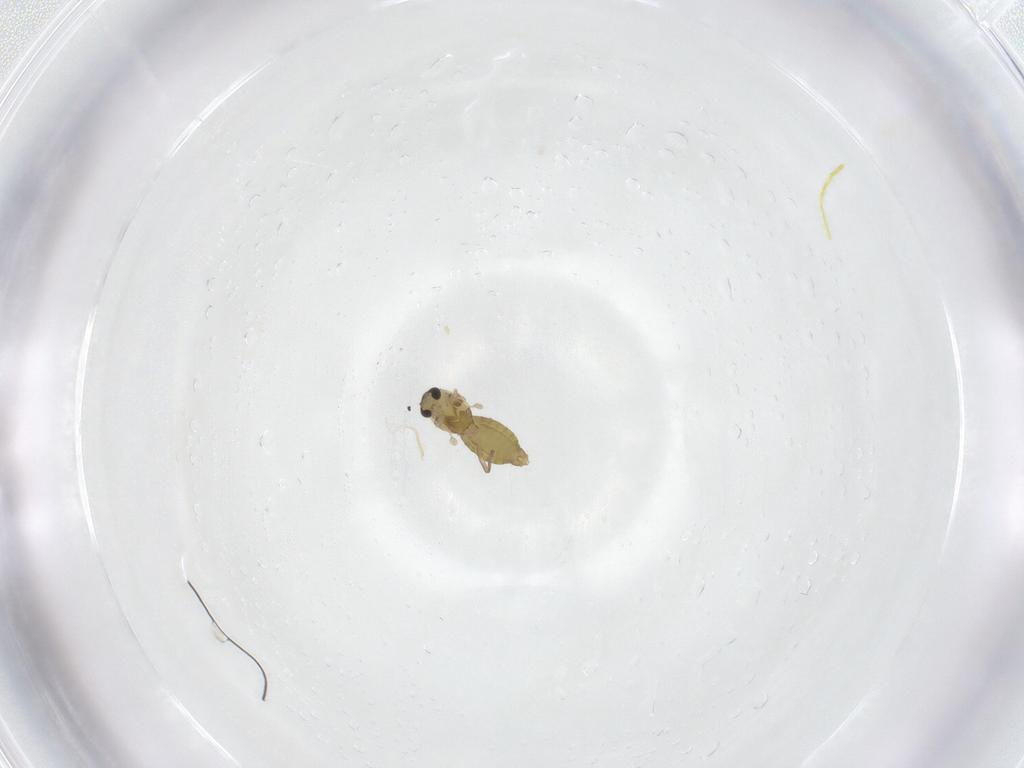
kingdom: Animalia
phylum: Arthropoda
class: Insecta
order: Diptera
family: Chironomidae
